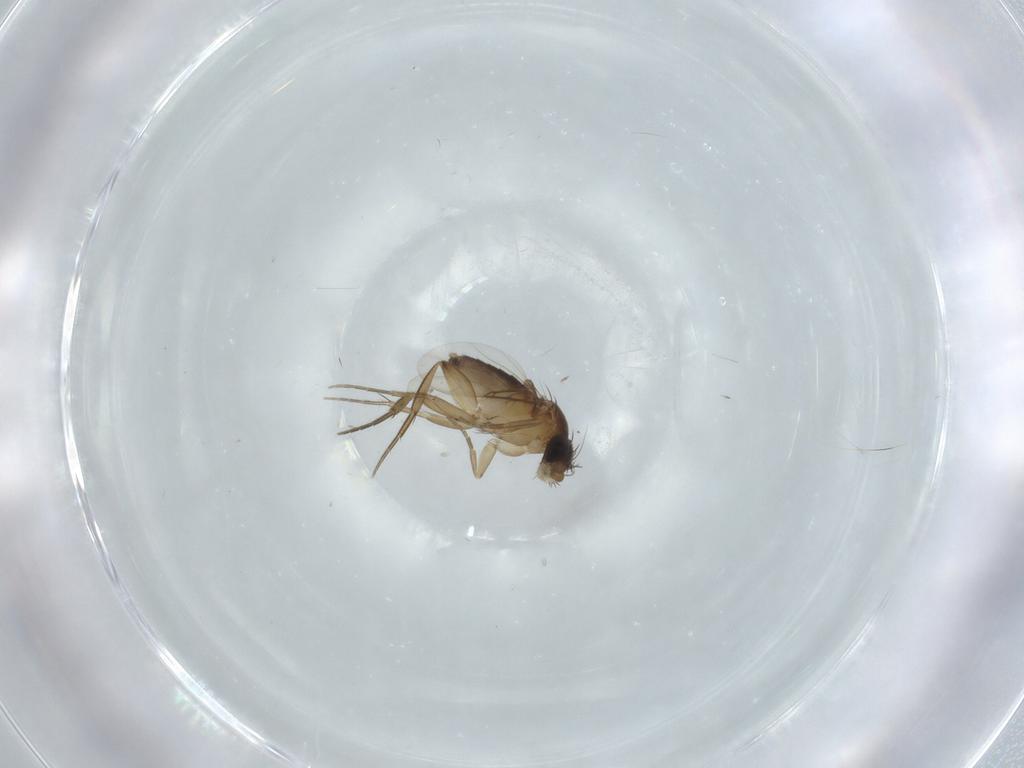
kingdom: Animalia
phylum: Arthropoda
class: Insecta
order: Diptera
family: Phoridae
